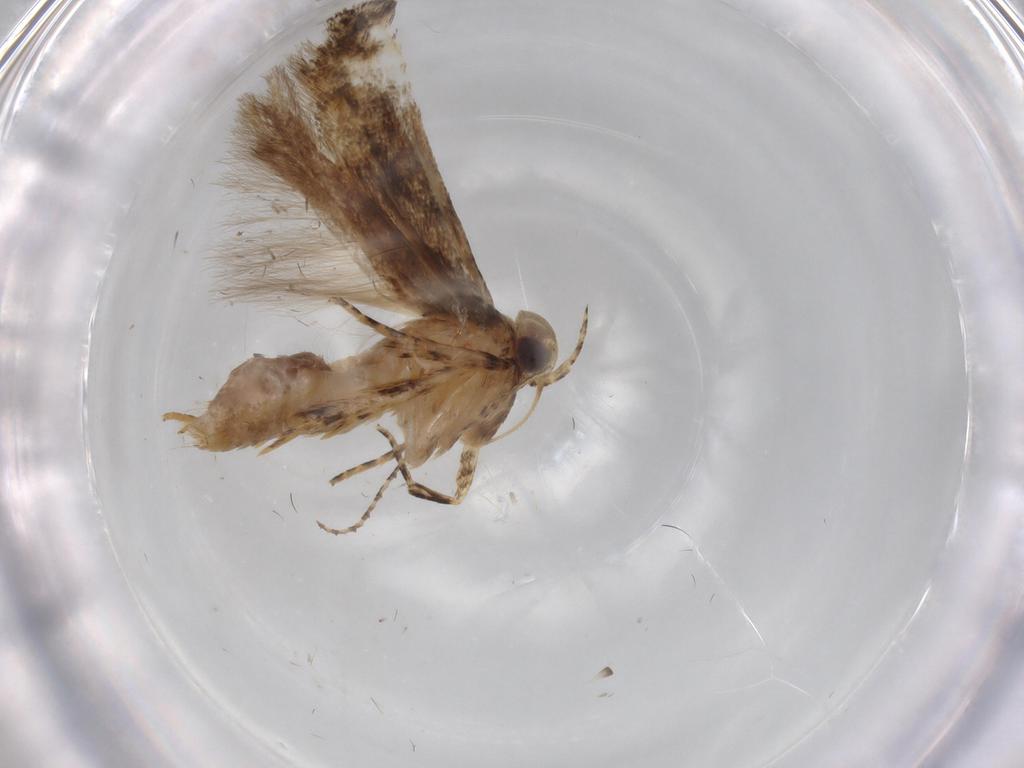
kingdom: Animalia
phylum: Arthropoda
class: Insecta
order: Lepidoptera
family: Gelechiidae
